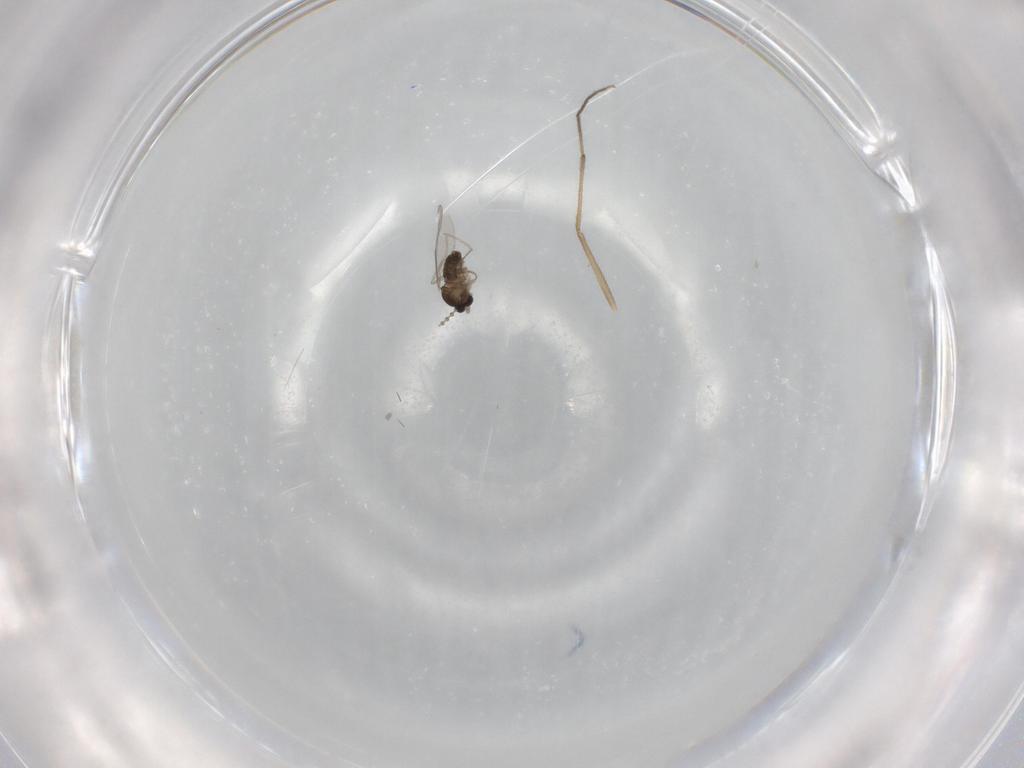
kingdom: Animalia
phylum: Arthropoda
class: Insecta
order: Diptera
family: Chironomidae
